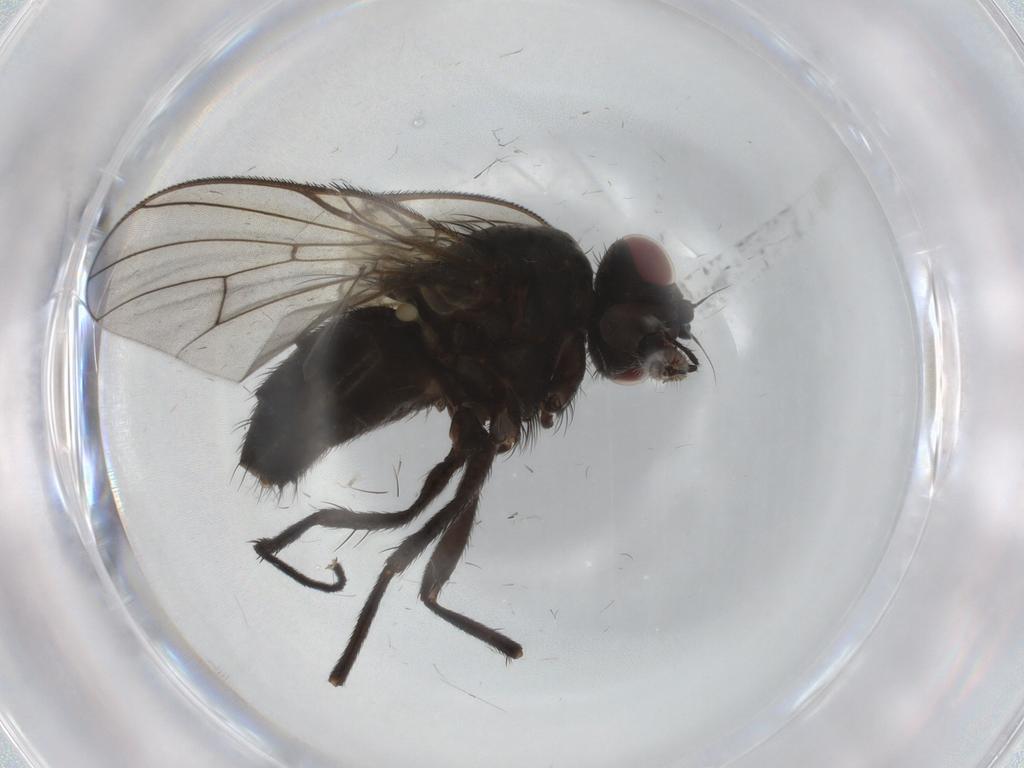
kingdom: Animalia
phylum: Arthropoda
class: Insecta
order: Diptera
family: Muscidae
